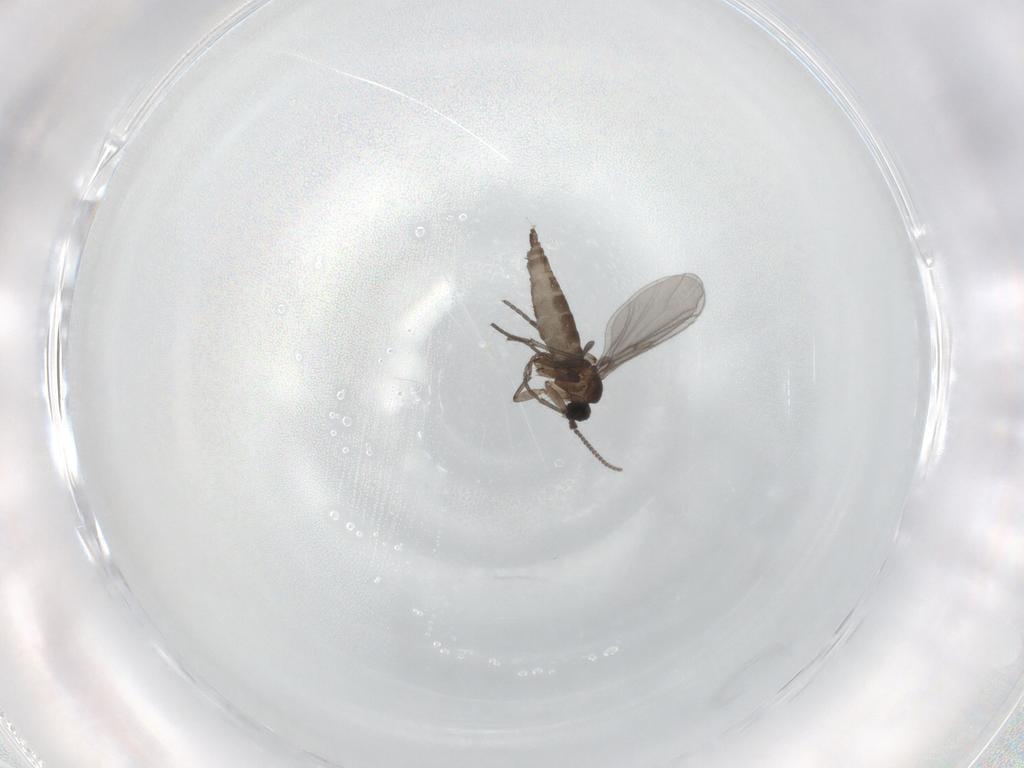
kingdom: Animalia
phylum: Arthropoda
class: Insecta
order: Diptera
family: Sciaridae
